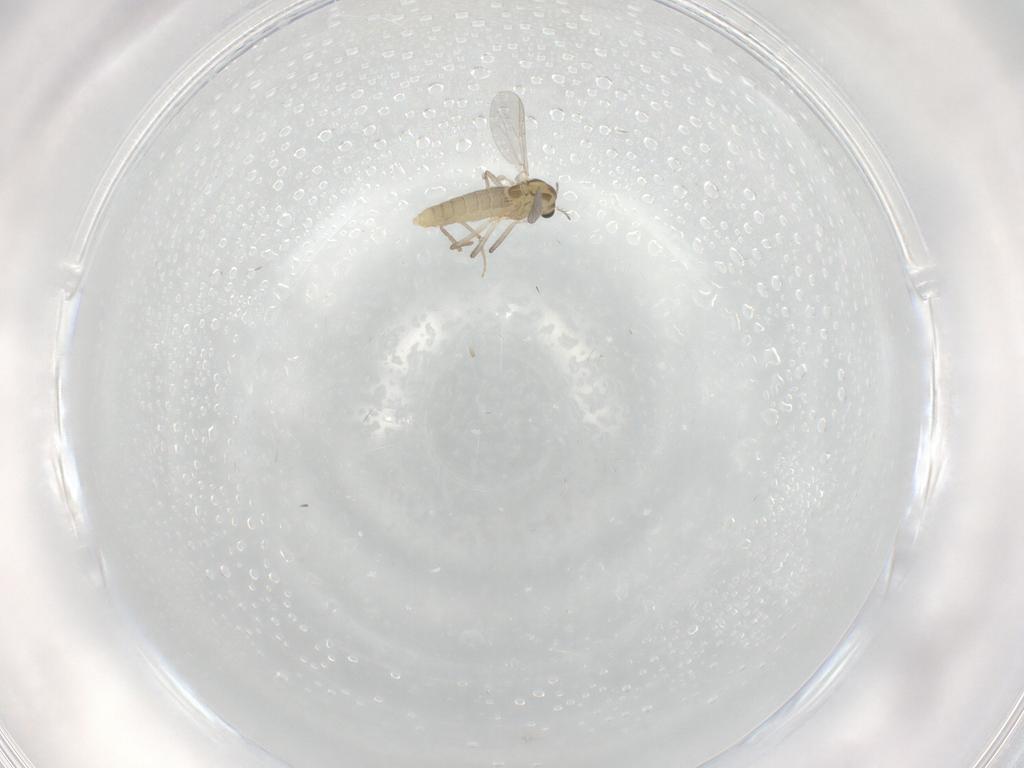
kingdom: Animalia
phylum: Arthropoda
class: Insecta
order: Diptera
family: Chironomidae
